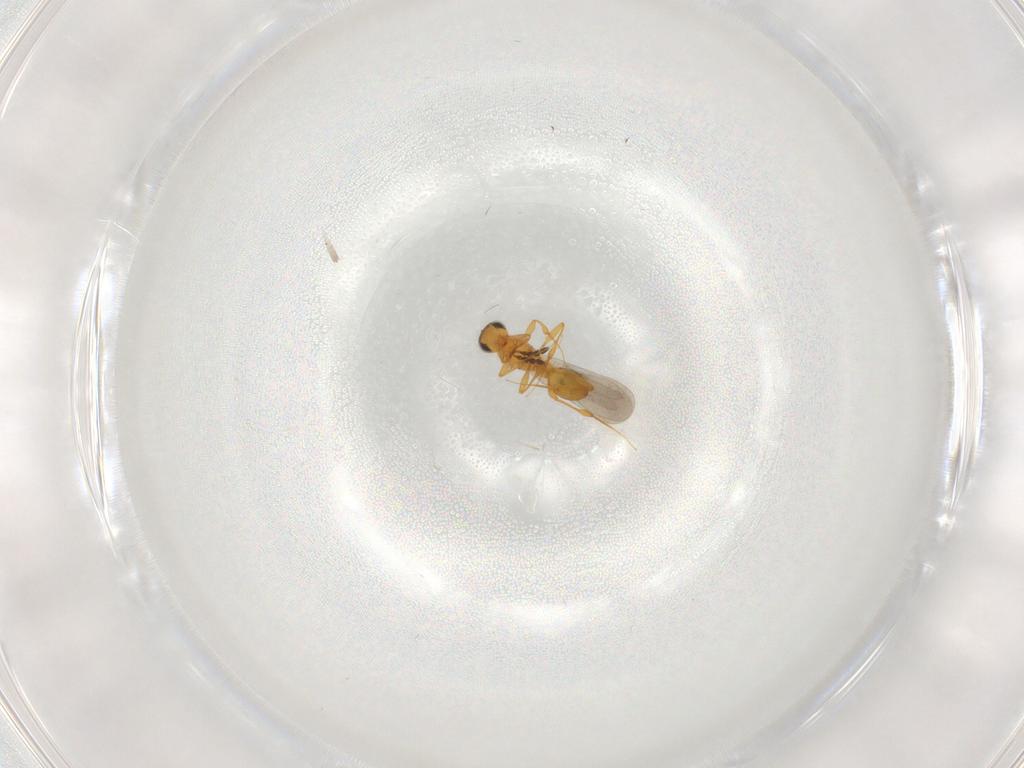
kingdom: Animalia
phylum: Arthropoda
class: Insecta
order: Hymenoptera
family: Platygastridae
